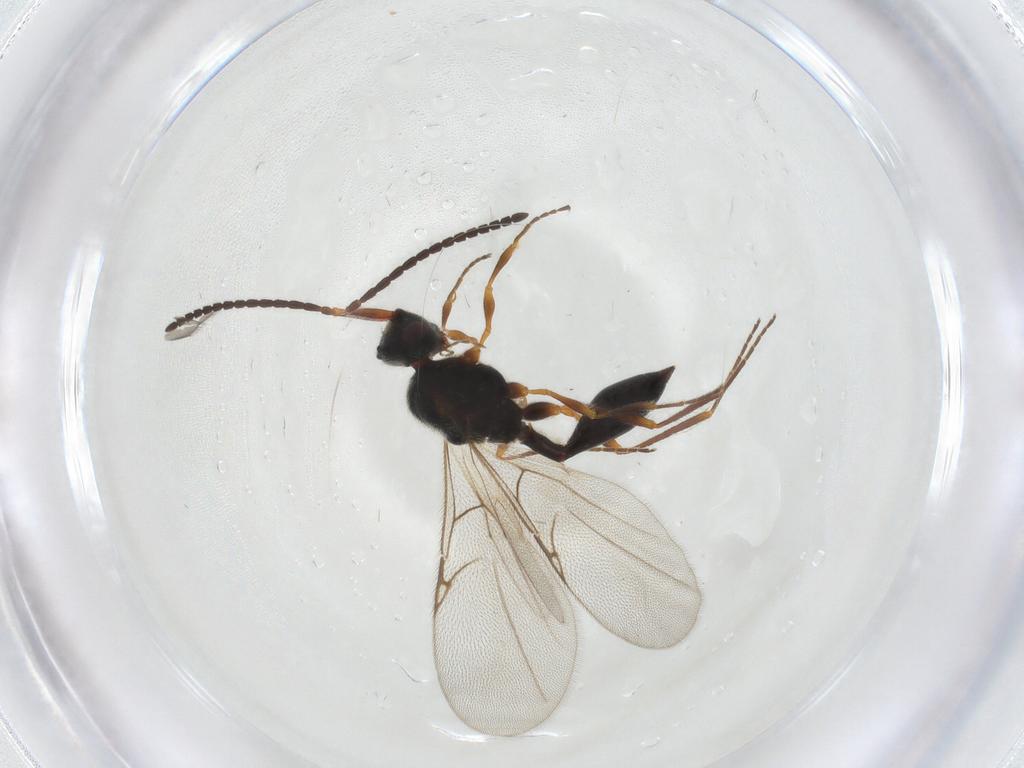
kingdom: Animalia
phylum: Arthropoda
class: Insecta
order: Hymenoptera
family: Diapriidae
